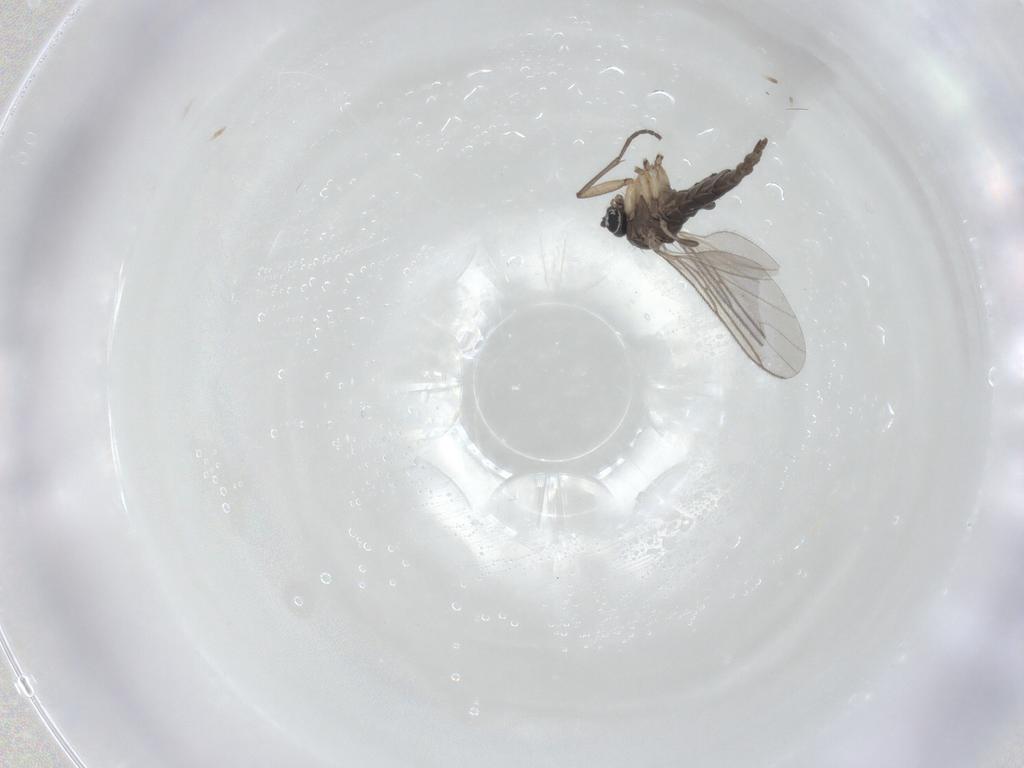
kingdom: Animalia
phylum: Arthropoda
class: Insecta
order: Diptera
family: Sciaridae
